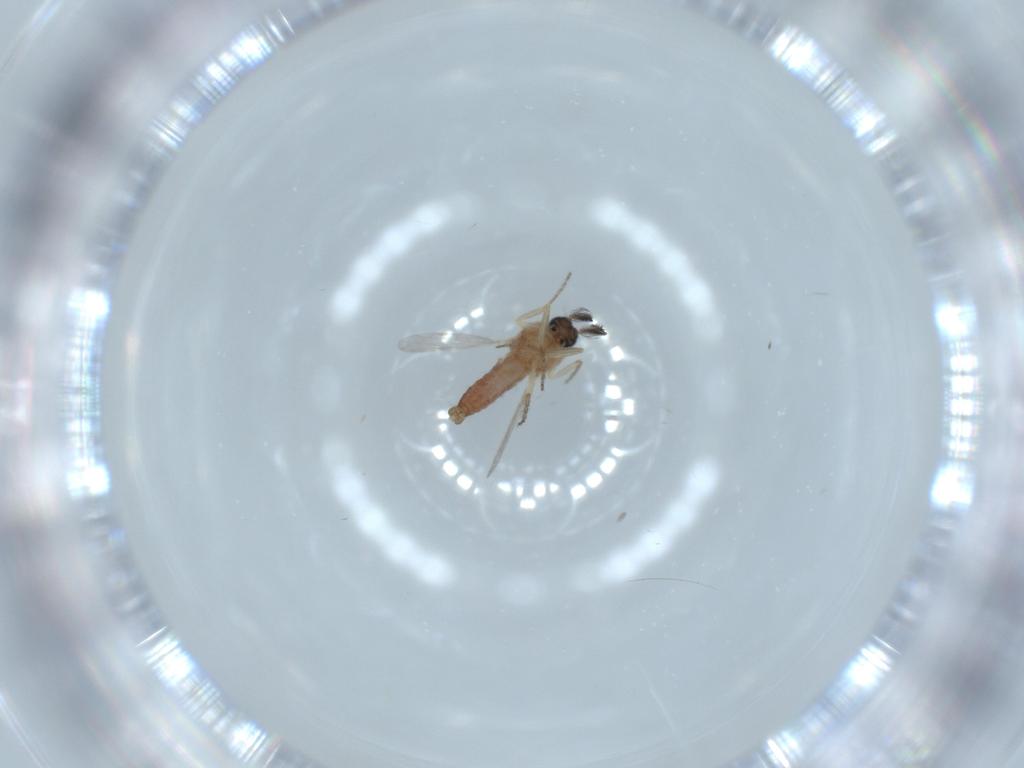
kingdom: Animalia
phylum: Arthropoda
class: Insecta
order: Diptera
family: Ceratopogonidae
